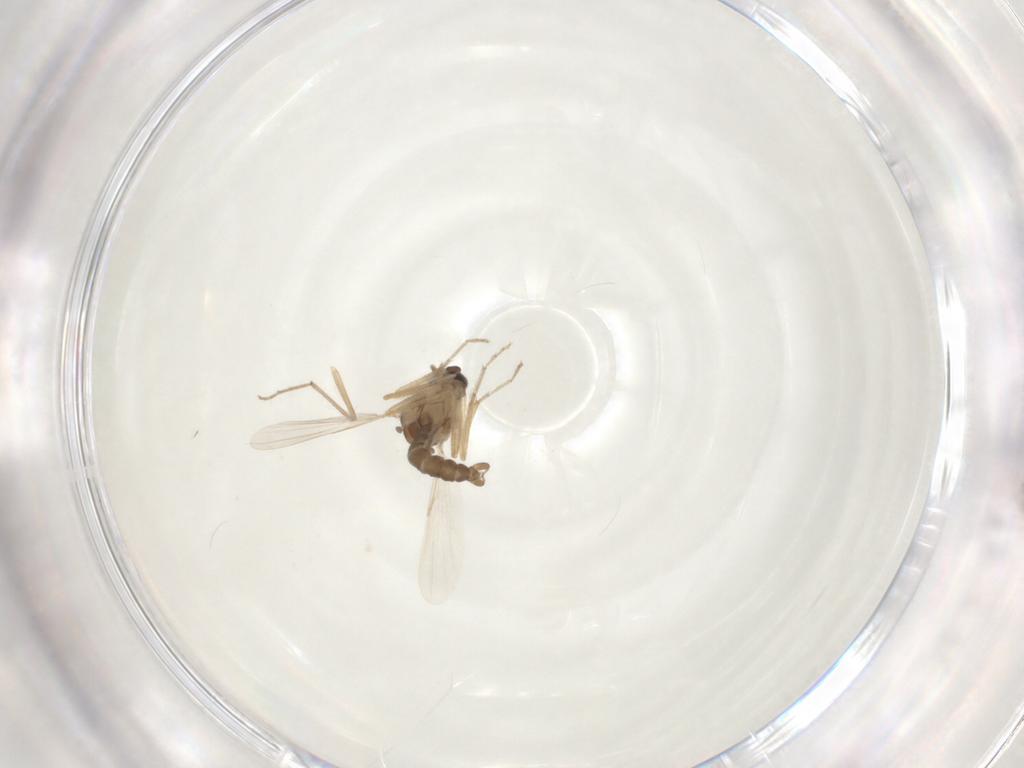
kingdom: Animalia
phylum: Arthropoda
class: Insecta
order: Diptera
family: Ceratopogonidae
